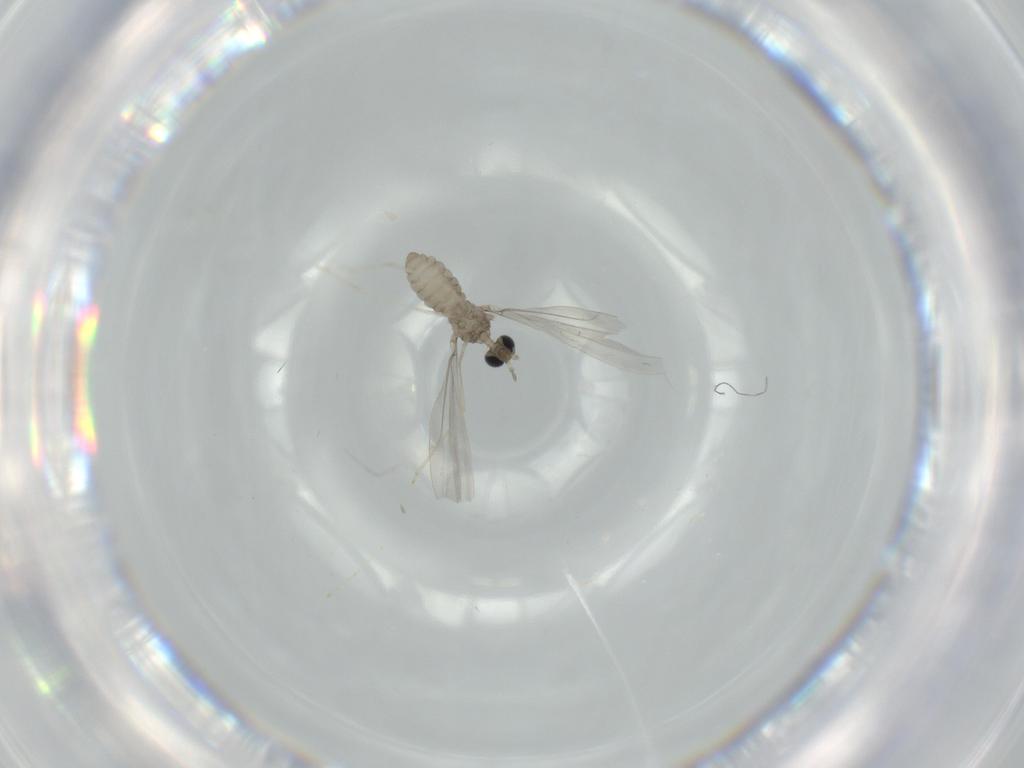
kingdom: Animalia
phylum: Arthropoda
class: Insecta
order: Diptera
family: Cecidomyiidae
